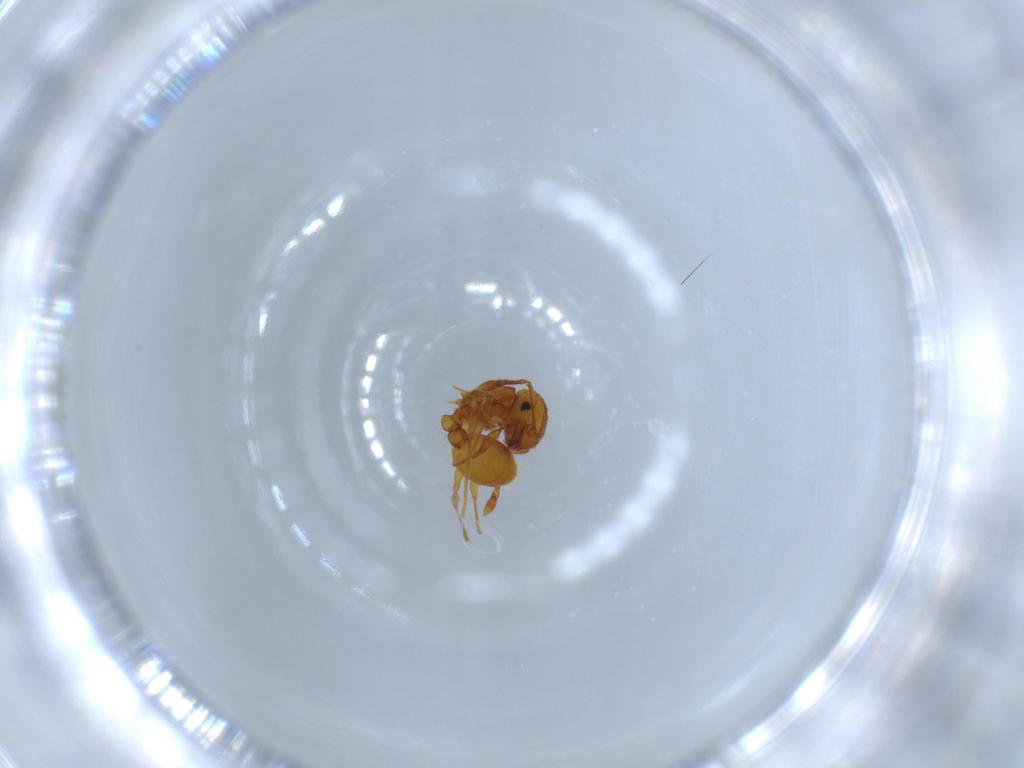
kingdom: Animalia
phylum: Arthropoda
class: Insecta
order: Hymenoptera
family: Formicidae
